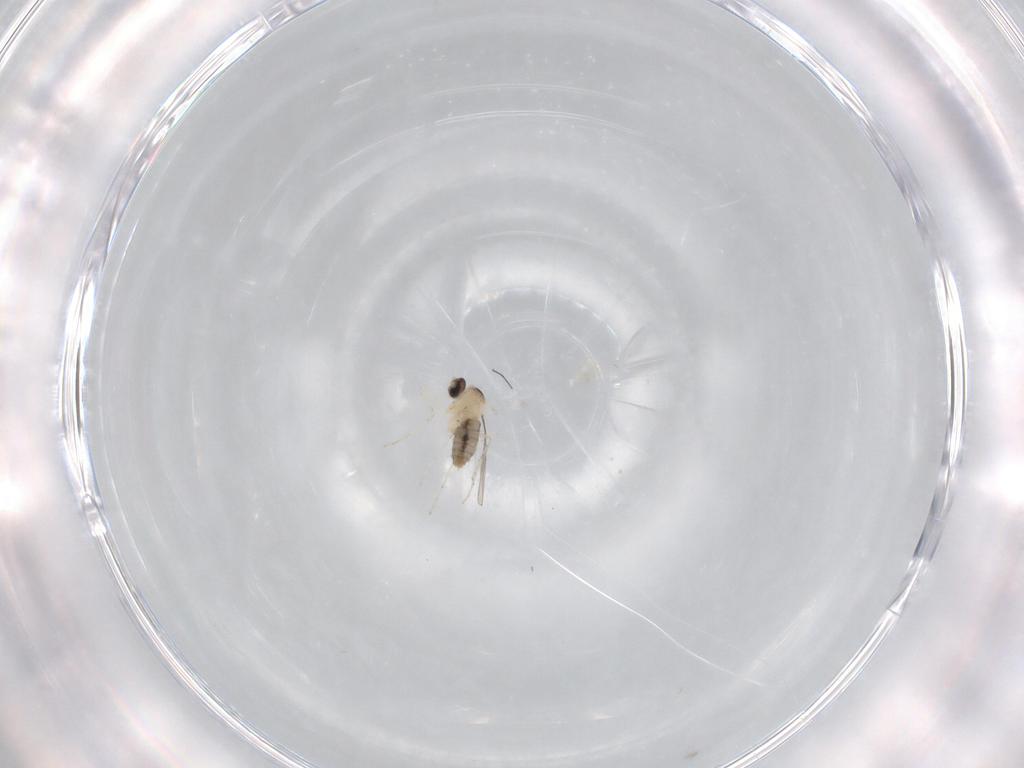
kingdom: Animalia
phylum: Arthropoda
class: Insecta
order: Diptera
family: Cecidomyiidae
